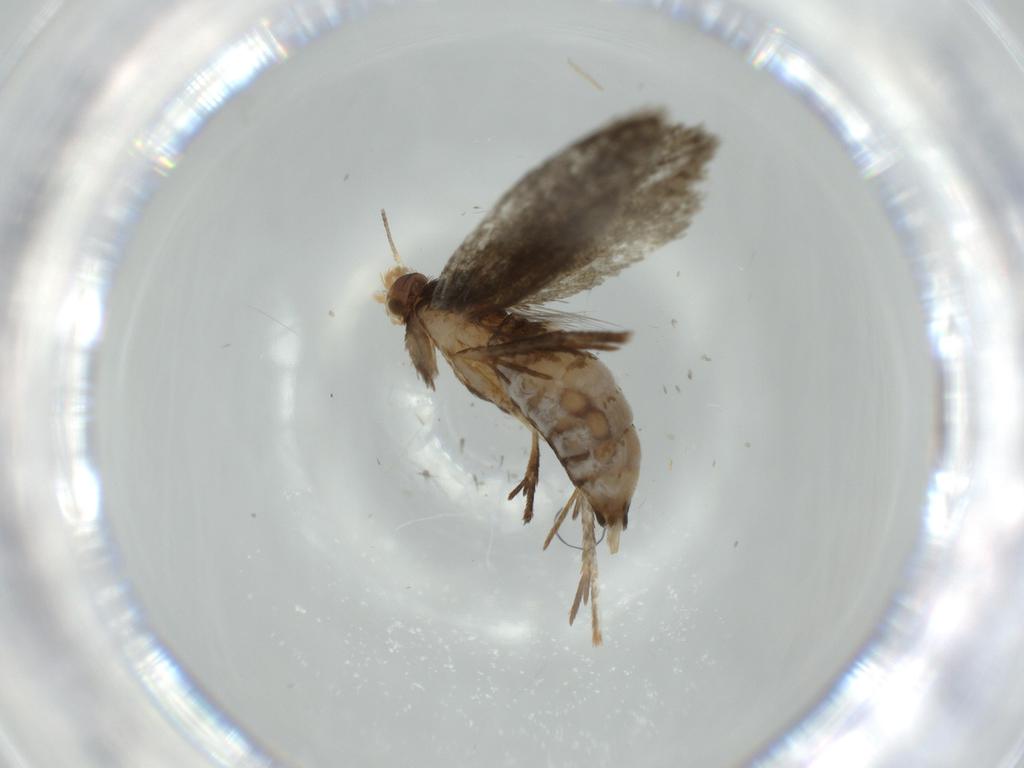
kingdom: Animalia
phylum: Arthropoda
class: Insecta
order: Lepidoptera
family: Tineidae
